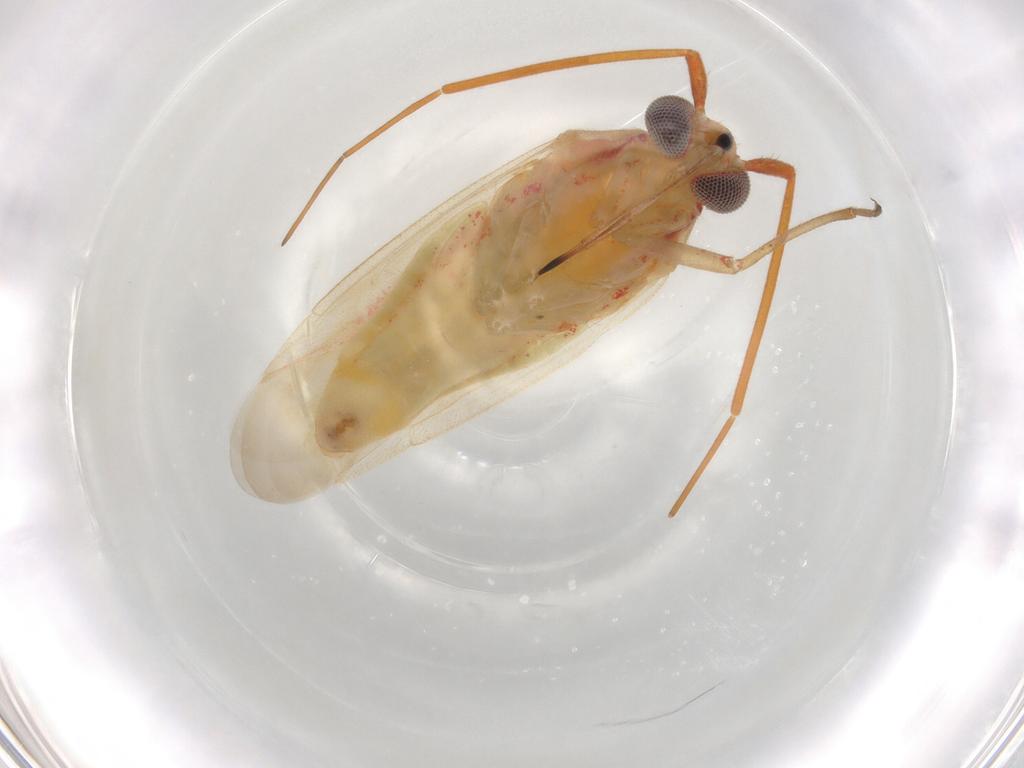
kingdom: Animalia
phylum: Arthropoda
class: Insecta
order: Hemiptera
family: Miridae
